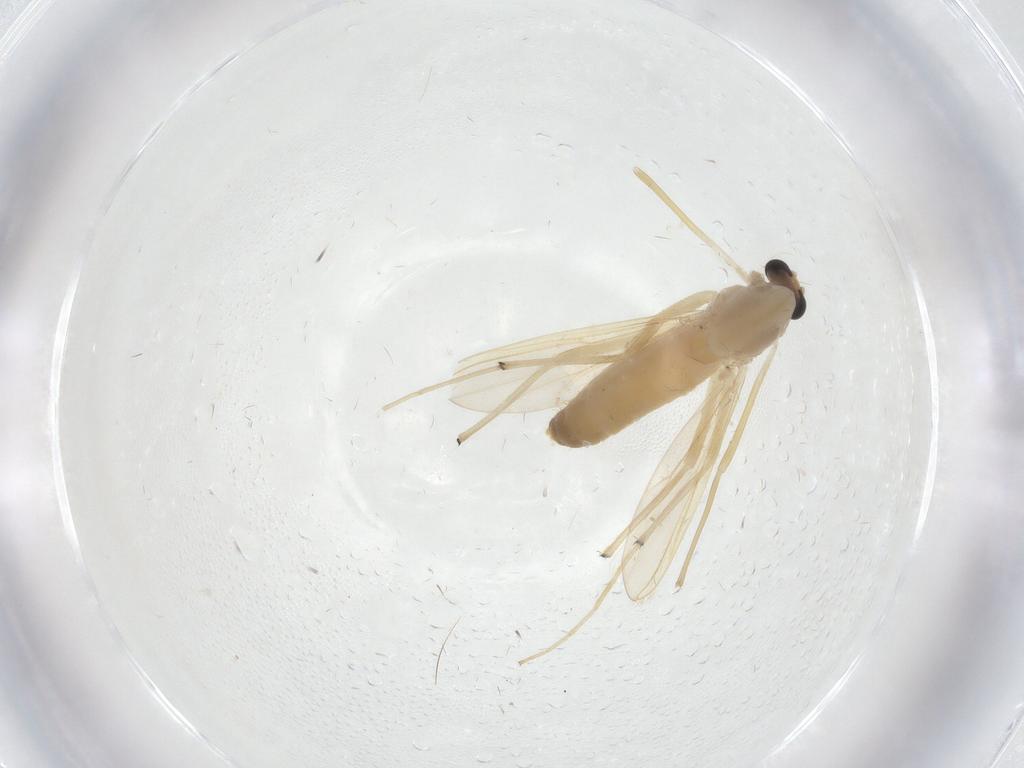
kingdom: Animalia
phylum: Arthropoda
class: Insecta
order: Diptera
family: Chironomidae
